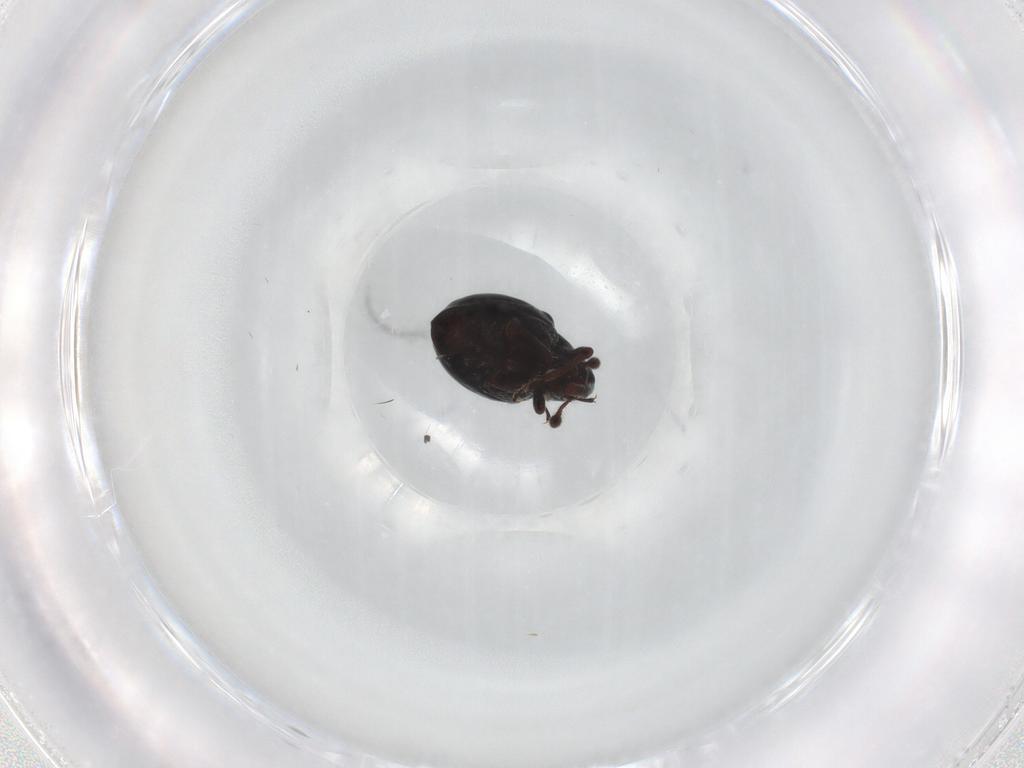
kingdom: Animalia
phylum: Arthropoda
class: Insecta
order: Coleoptera
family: Curculionidae
